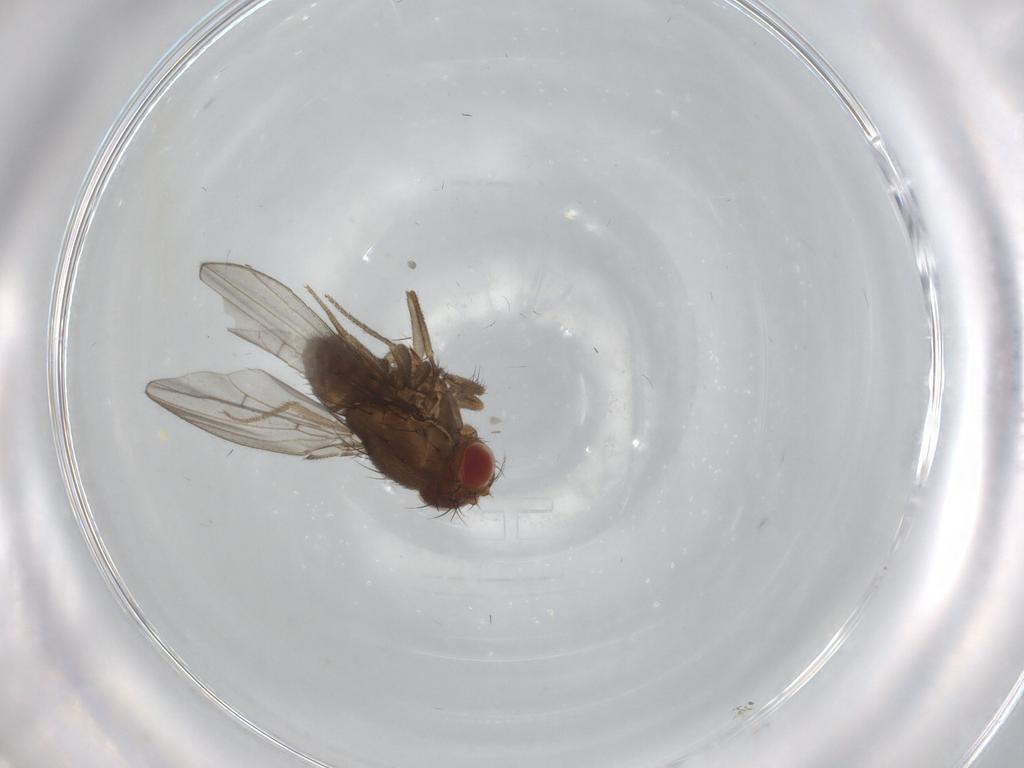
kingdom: Animalia
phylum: Arthropoda
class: Insecta
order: Diptera
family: Drosophilidae
